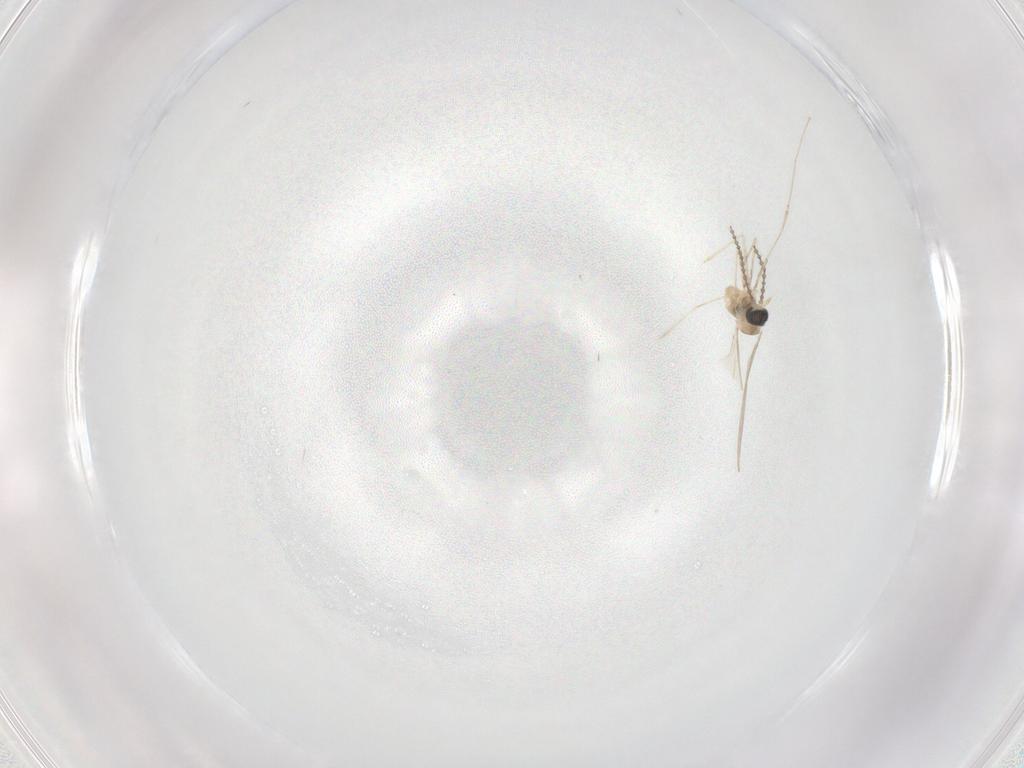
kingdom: Animalia
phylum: Arthropoda
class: Insecta
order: Diptera
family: Cecidomyiidae
